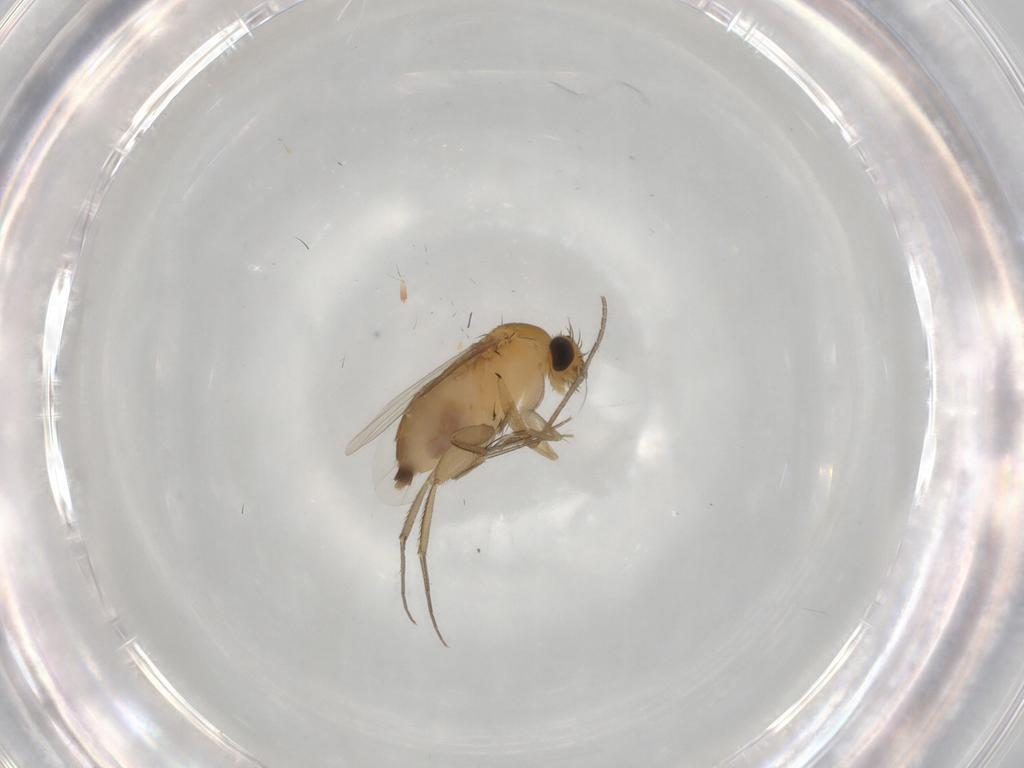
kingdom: Animalia
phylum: Arthropoda
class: Insecta
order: Diptera
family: Phoridae
